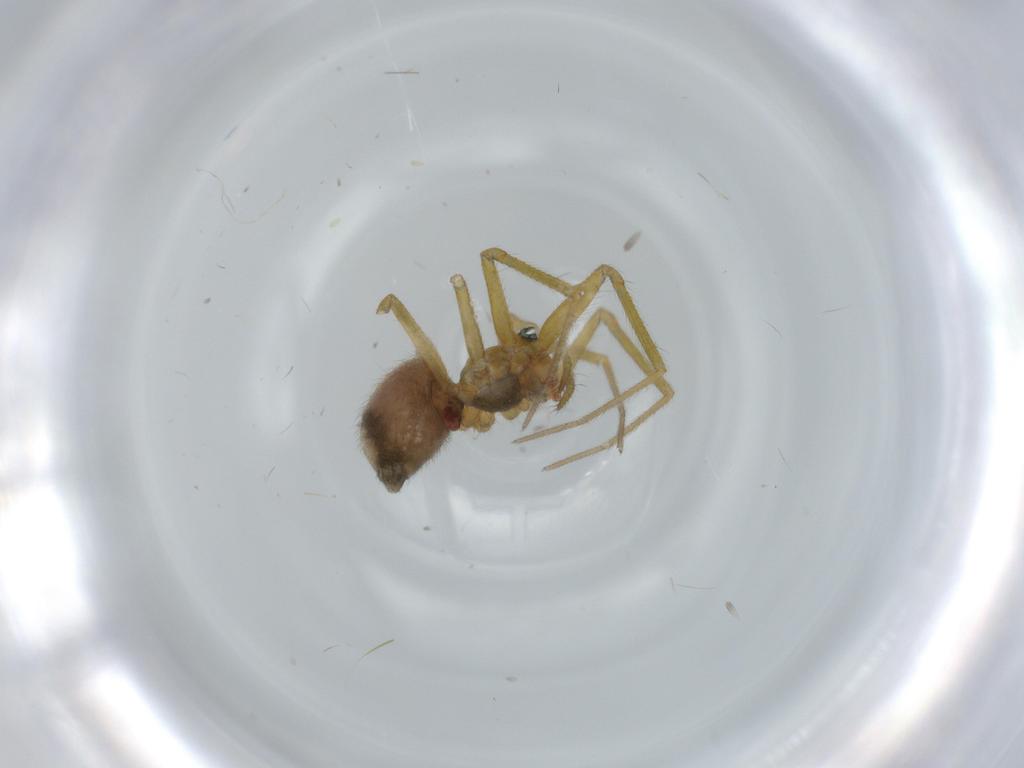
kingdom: Animalia
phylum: Arthropoda
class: Arachnida
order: Araneae
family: Linyphiidae
